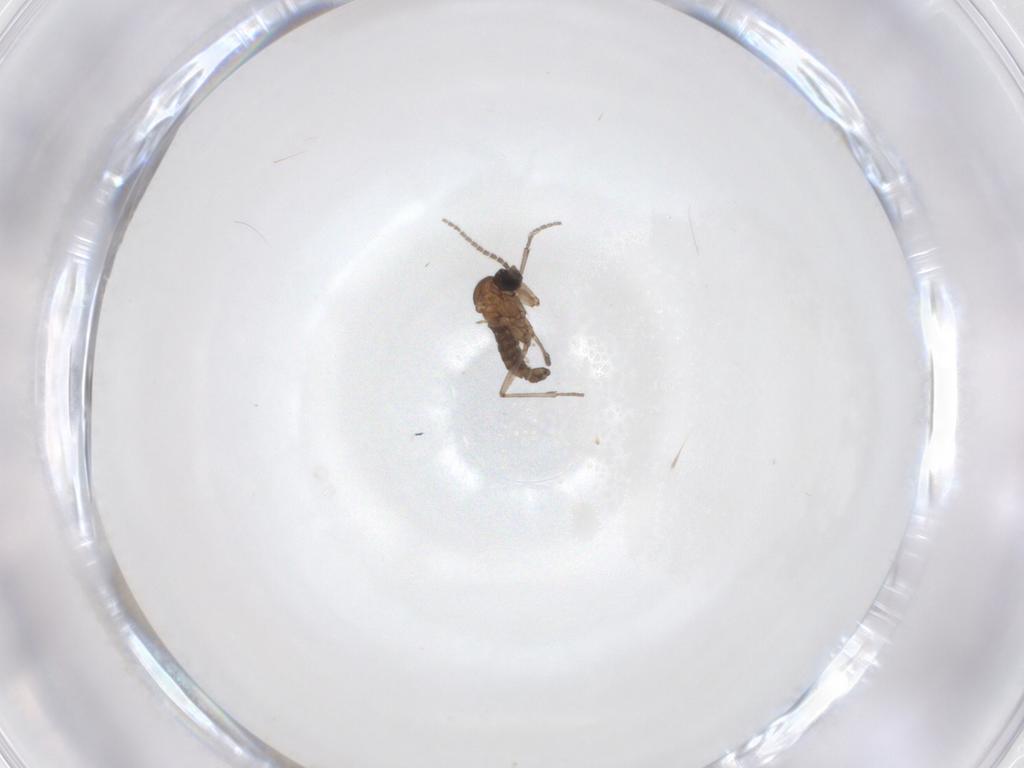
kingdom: Animalia
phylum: Arthropoda
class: Insecta
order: Diptera
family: Sciaridae
